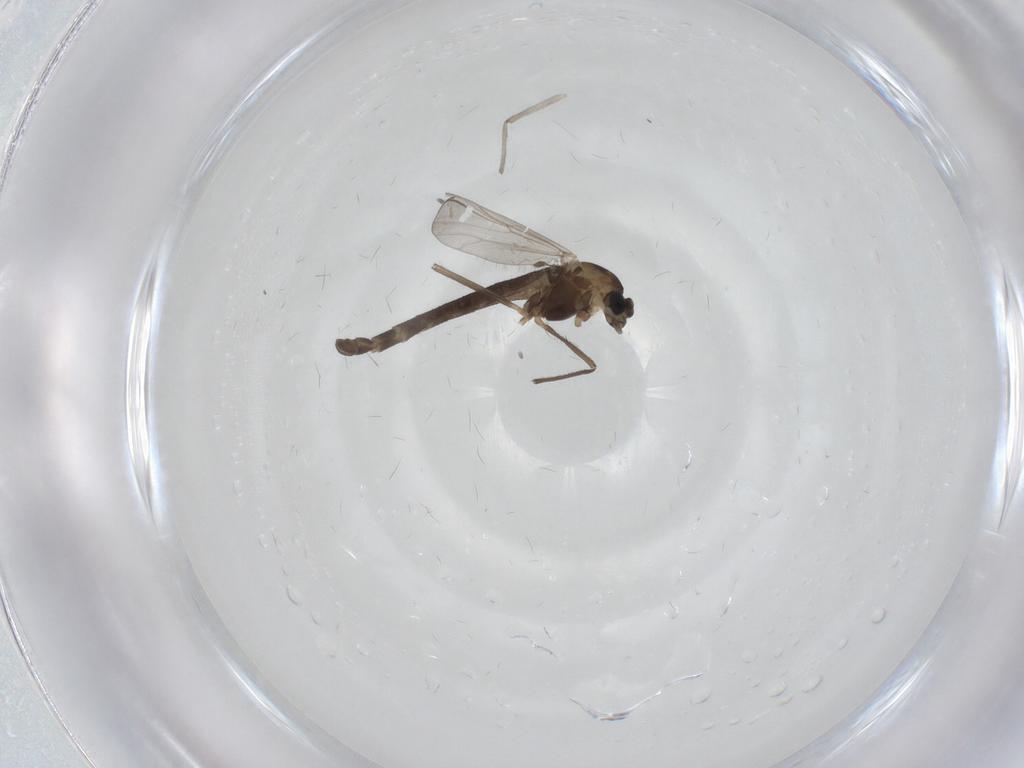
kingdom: Animalia
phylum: Arthropoda
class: Insecta
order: Diptera
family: Chironomidae
